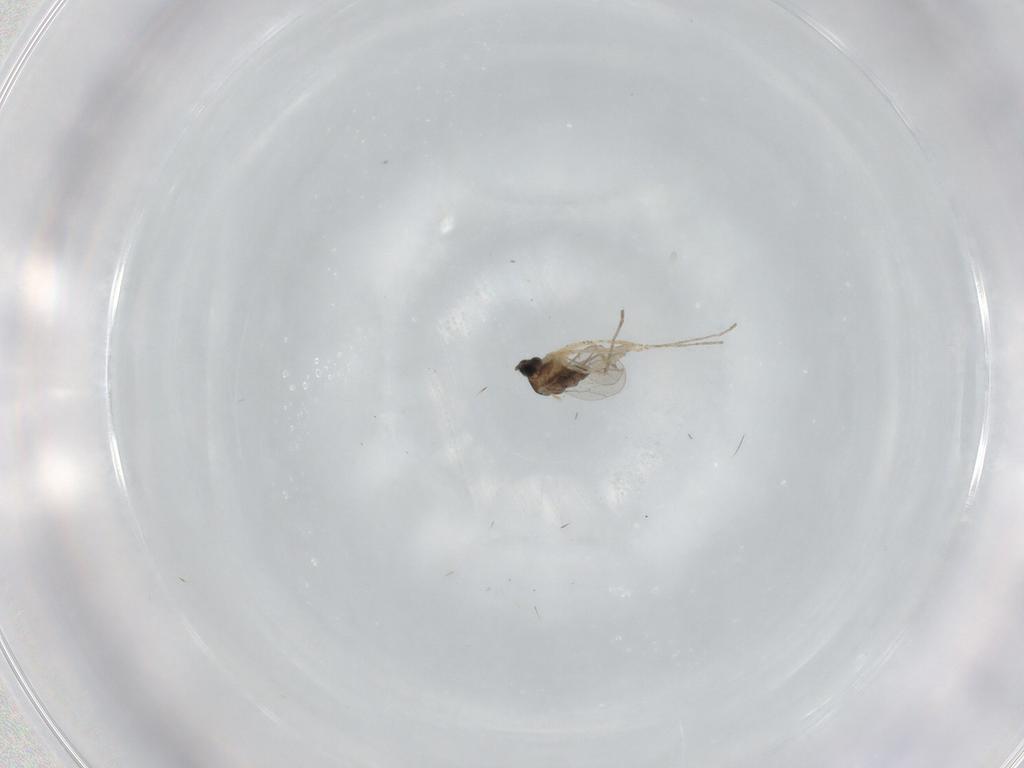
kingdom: Animalia
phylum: Arthropoda
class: Insecta
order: Diptera
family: Cecidomyiidae
